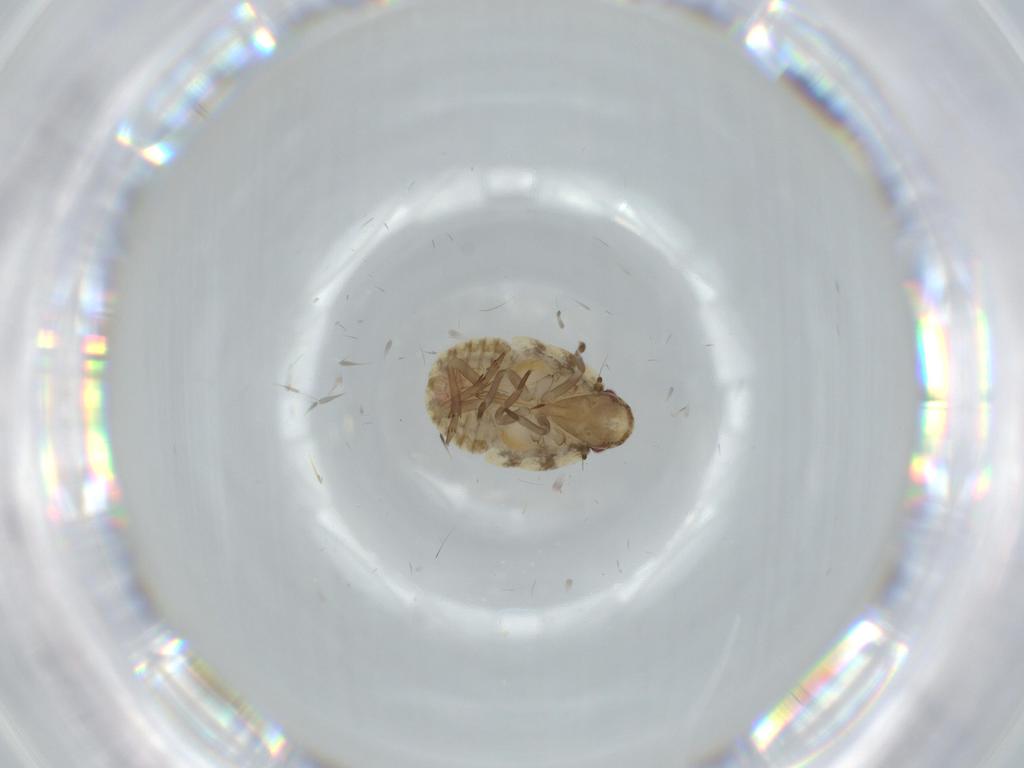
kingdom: Animalia
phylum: Arthropoda
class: Insecta
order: Hemiptera
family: Flatidae
